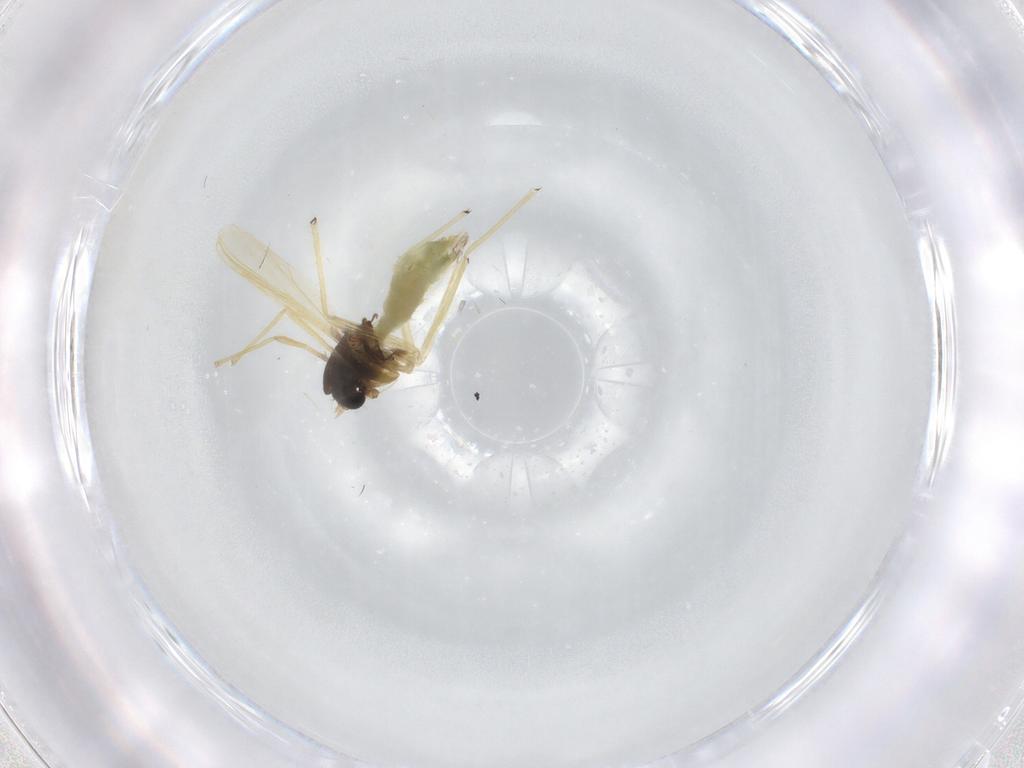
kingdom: Animalia
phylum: Arthropoda
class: Insecta
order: Diptera
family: Chironomidae
